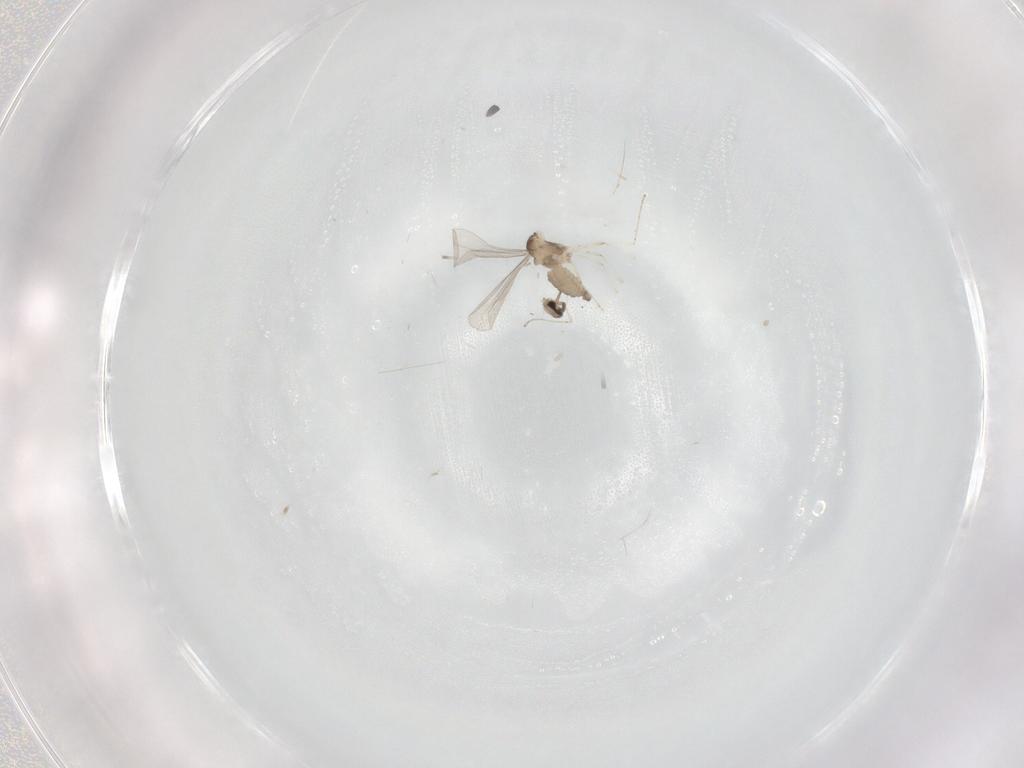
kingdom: Animalia
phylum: Arthropoda
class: Insecta
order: Diptera
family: Cecidomyiidae
